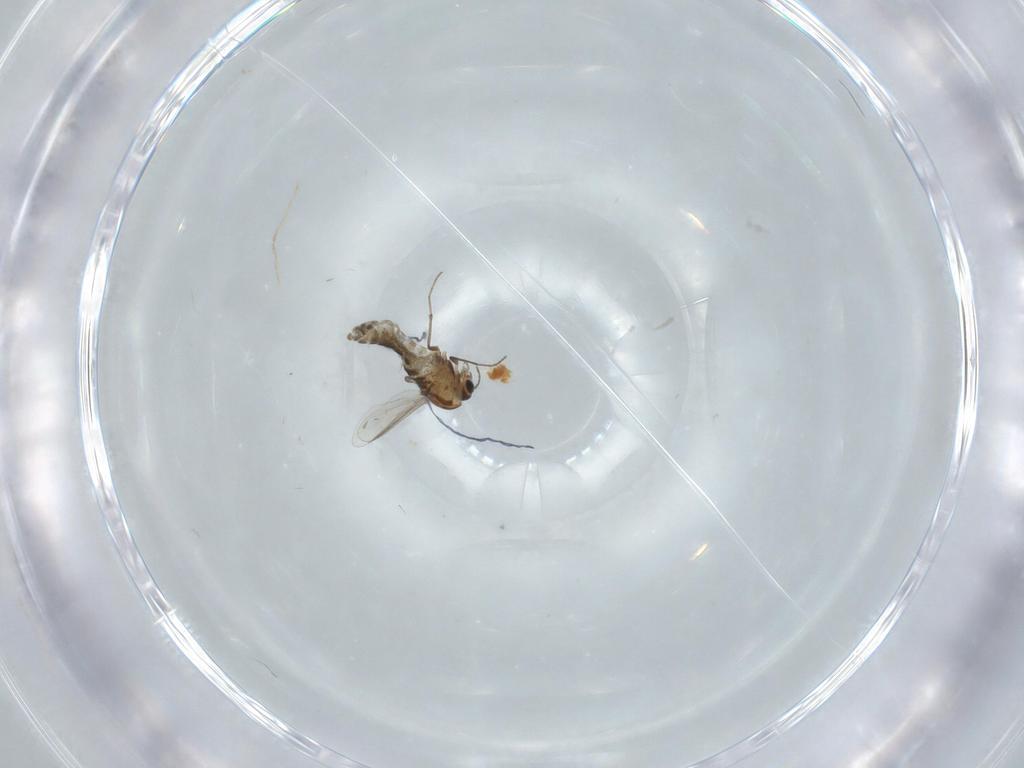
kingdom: Animalia
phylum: Arthropoda
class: Insecta
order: Diptera
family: Chironomidae
